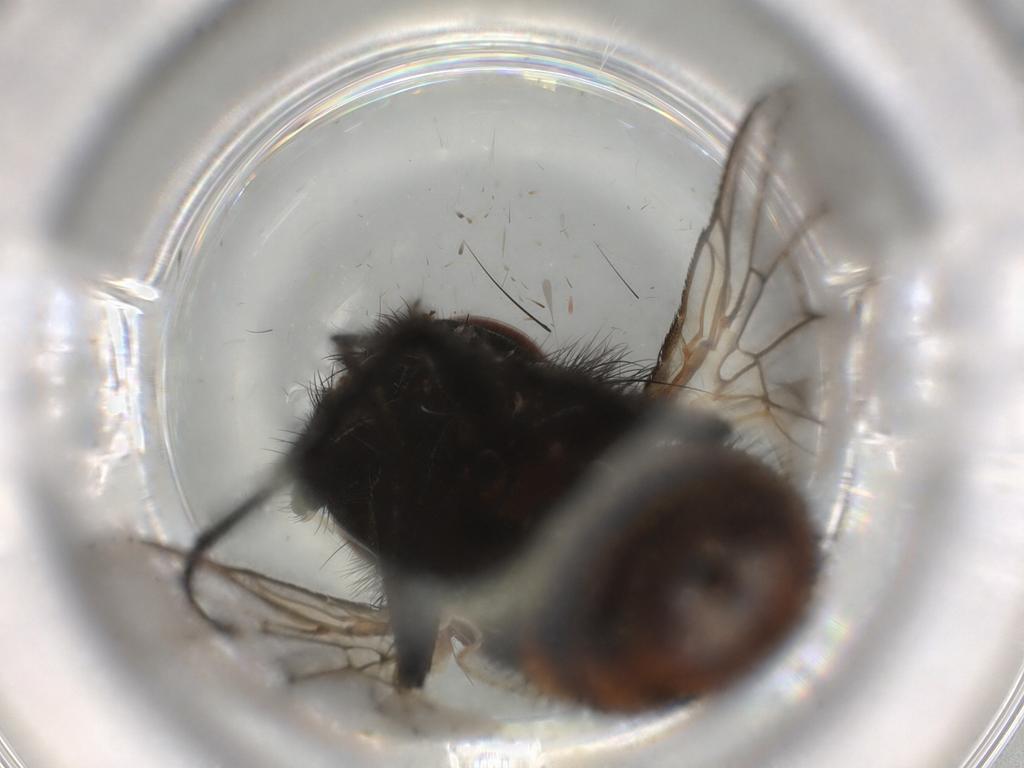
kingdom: Animalia
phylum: Arthropoda
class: Insecta
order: Diptera
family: Sarcophagidae
